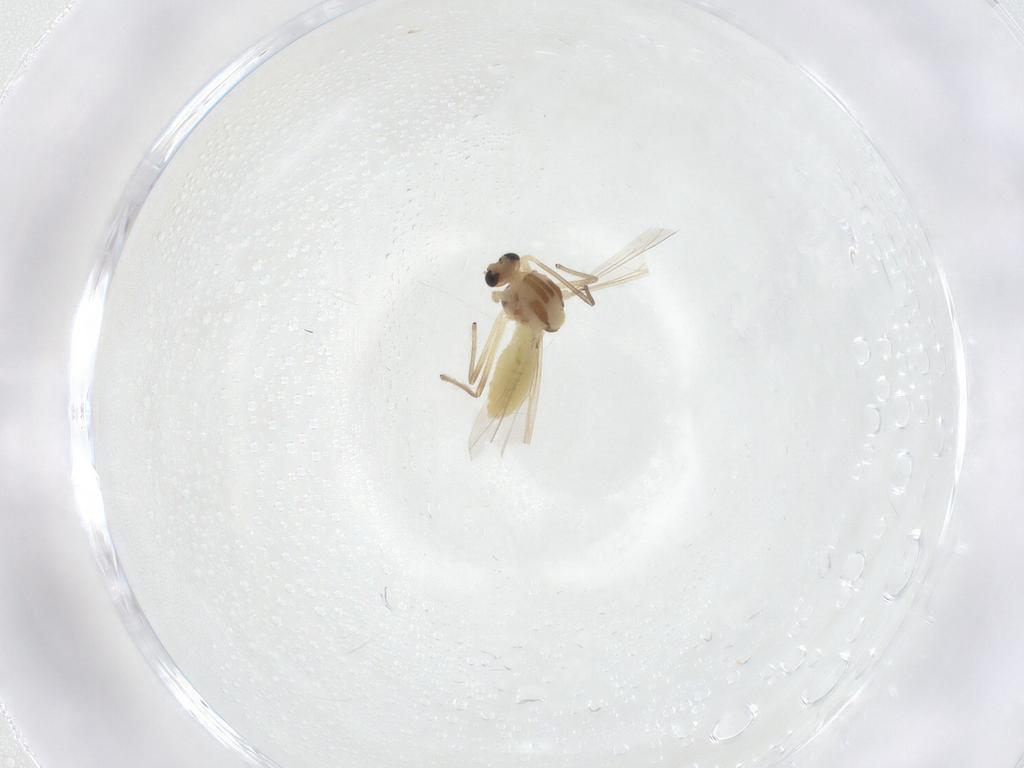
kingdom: Animalia
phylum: Arthropoda
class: Insecta
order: Diptera
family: Chironomidae
